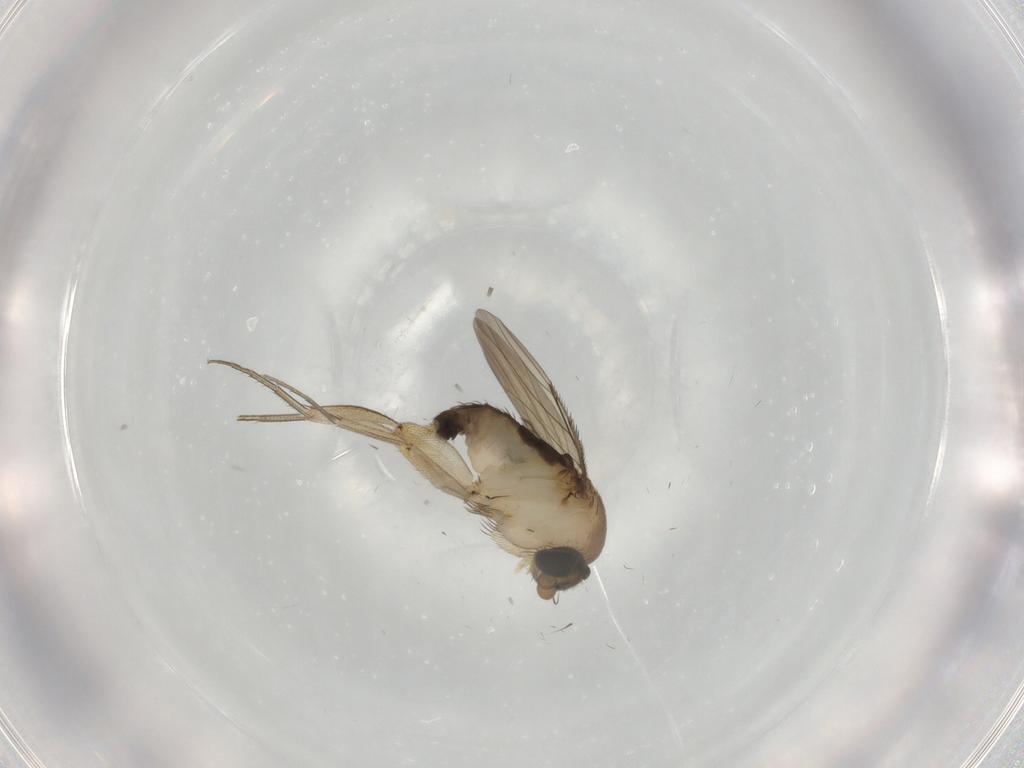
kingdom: Animalia
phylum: Arthropoda
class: Insecta
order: Diptera
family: Phoridae
